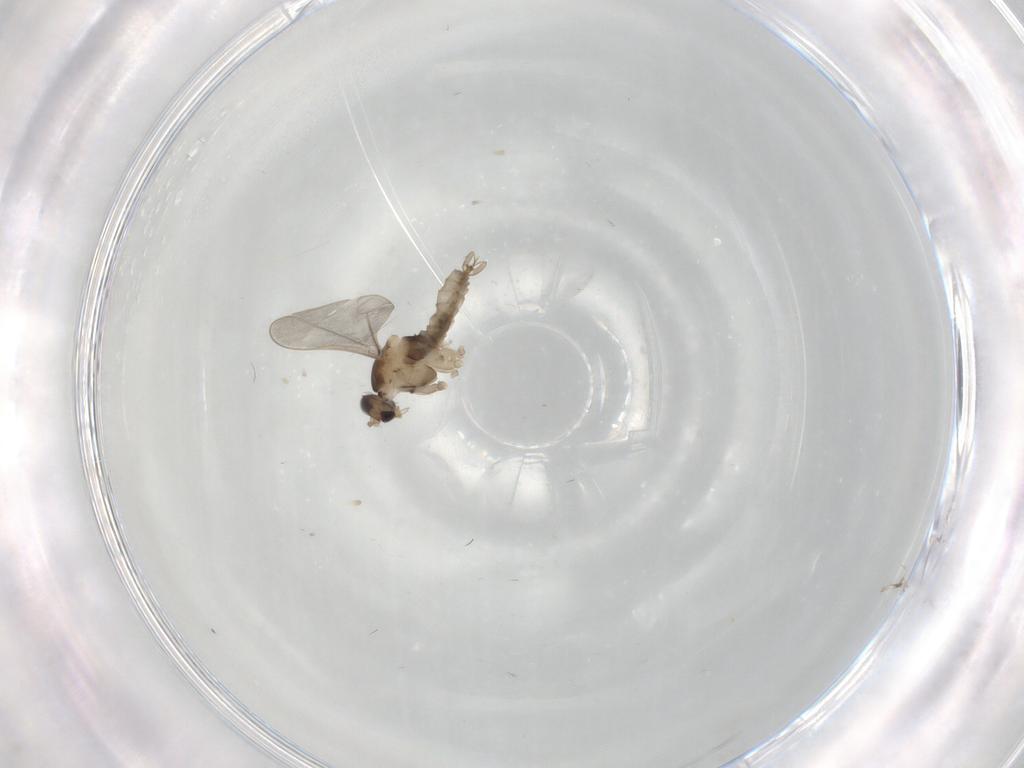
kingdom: Animalia
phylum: Arthropoda
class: Insecta
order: Diptera
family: Cecidomyiidae
